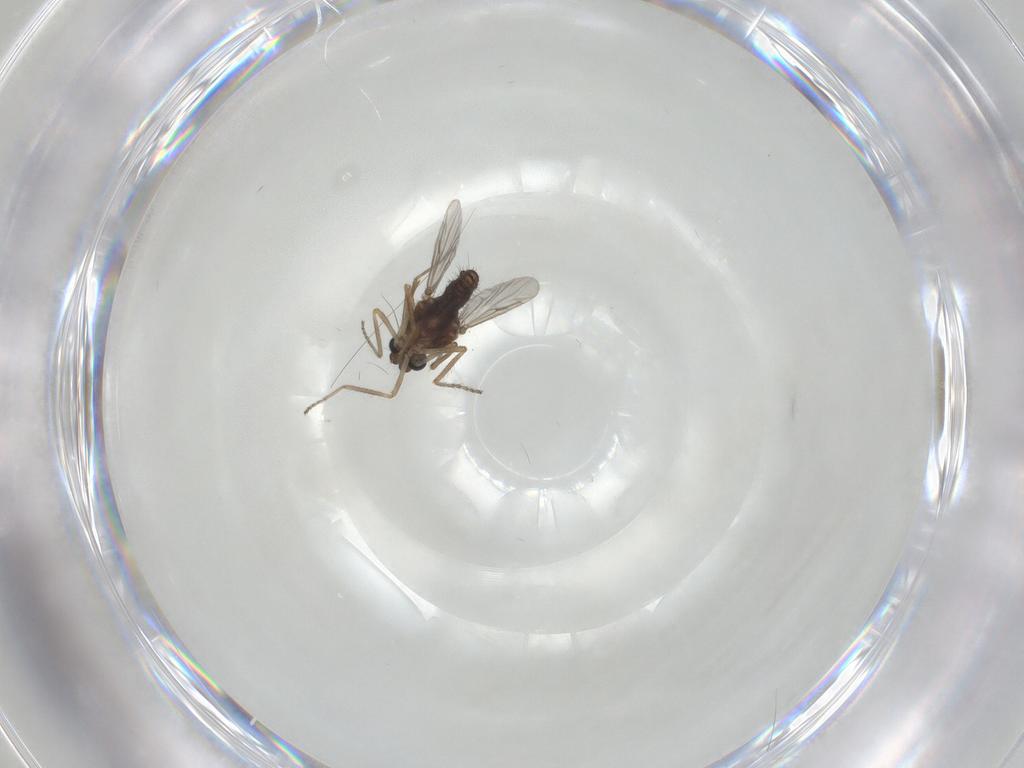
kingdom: Animalia
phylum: Arthropoda
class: Insecta
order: Diptera
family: Ceratopogonidae
